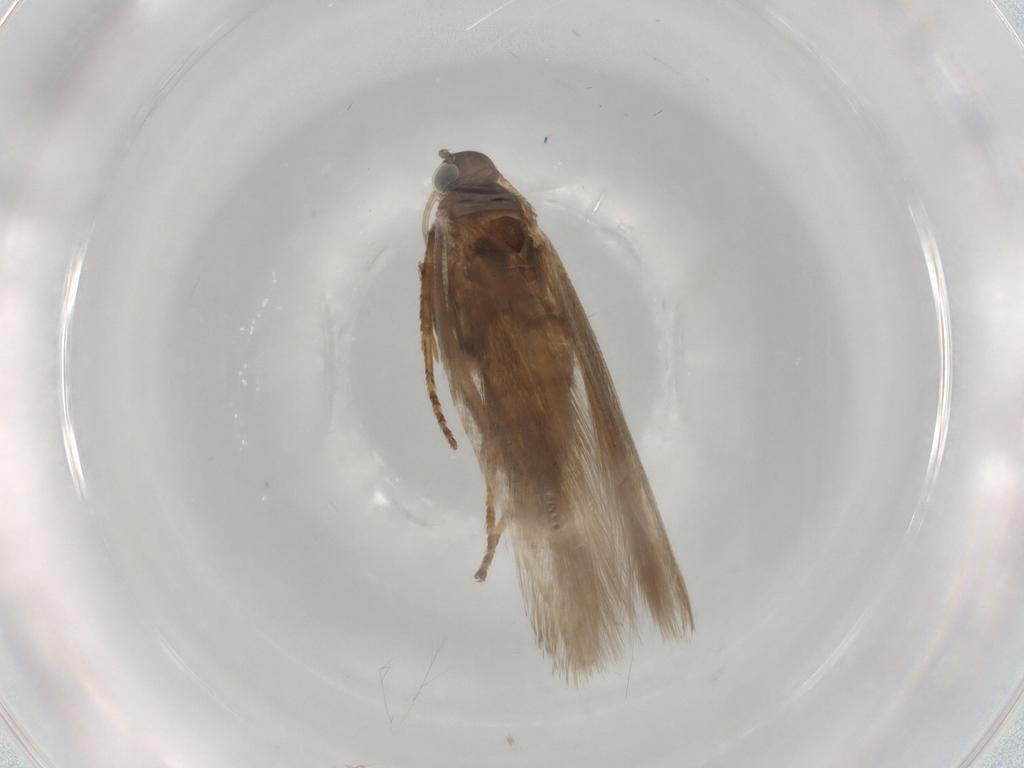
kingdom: Animalia
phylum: Arthropoda
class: Insecta
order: Lepidoptera
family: Gelechiidae
